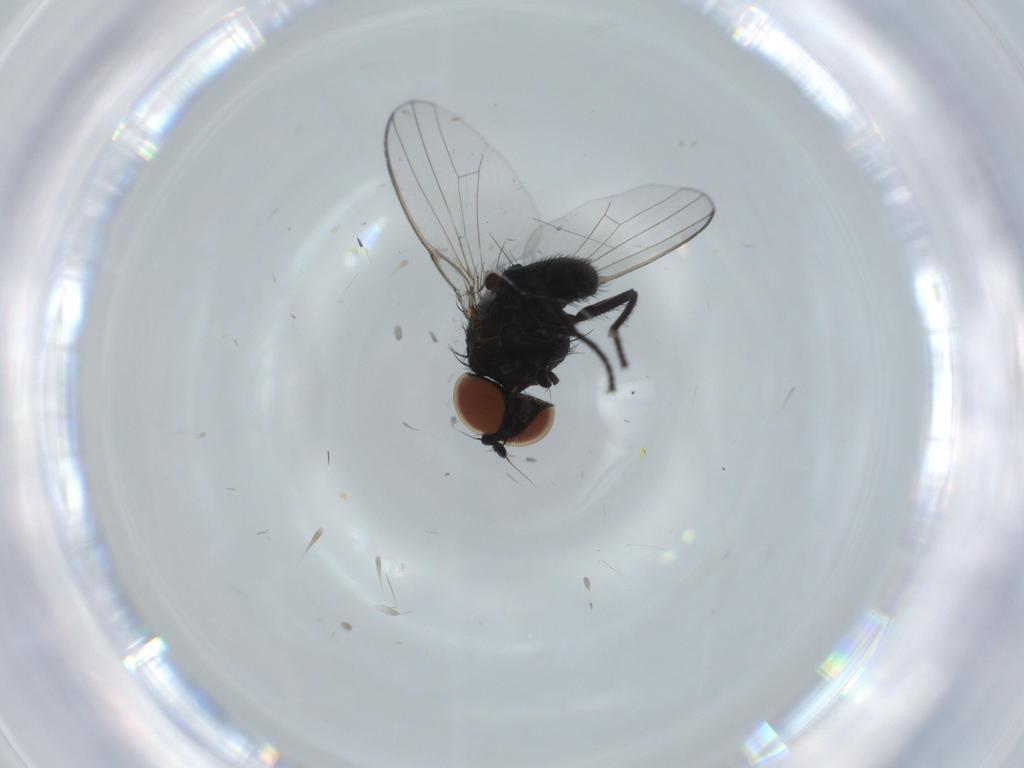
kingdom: Animalia
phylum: Arthropoda
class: Insecta
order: Diptera
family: Milichiidae
